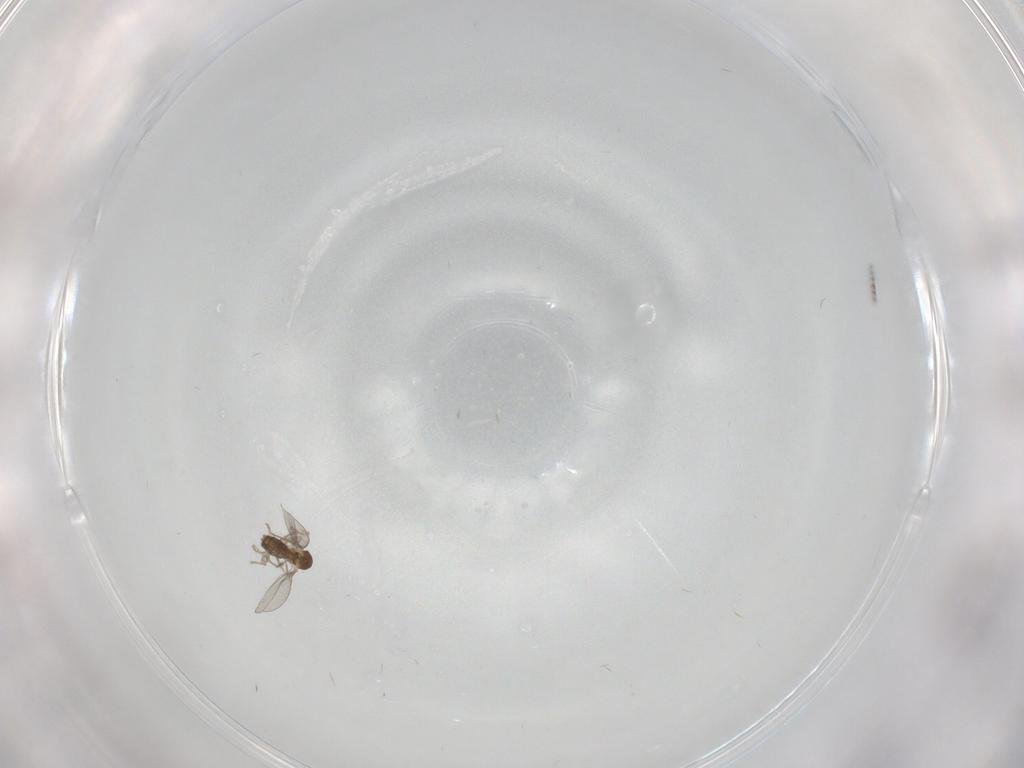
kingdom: Animalia
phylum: Arthropoda
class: Insecta
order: Diptera
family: Cecidomyiidae
